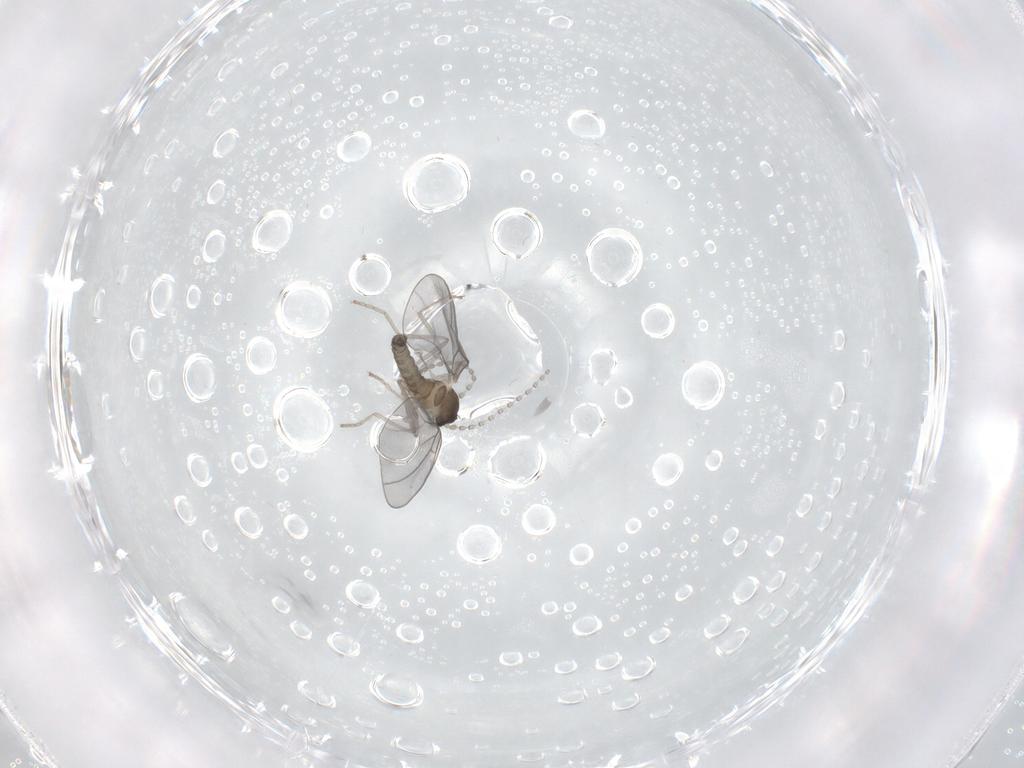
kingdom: Animalia
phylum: Arthropoda
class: Insecta
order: Diptera
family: Cecidomyiidae
